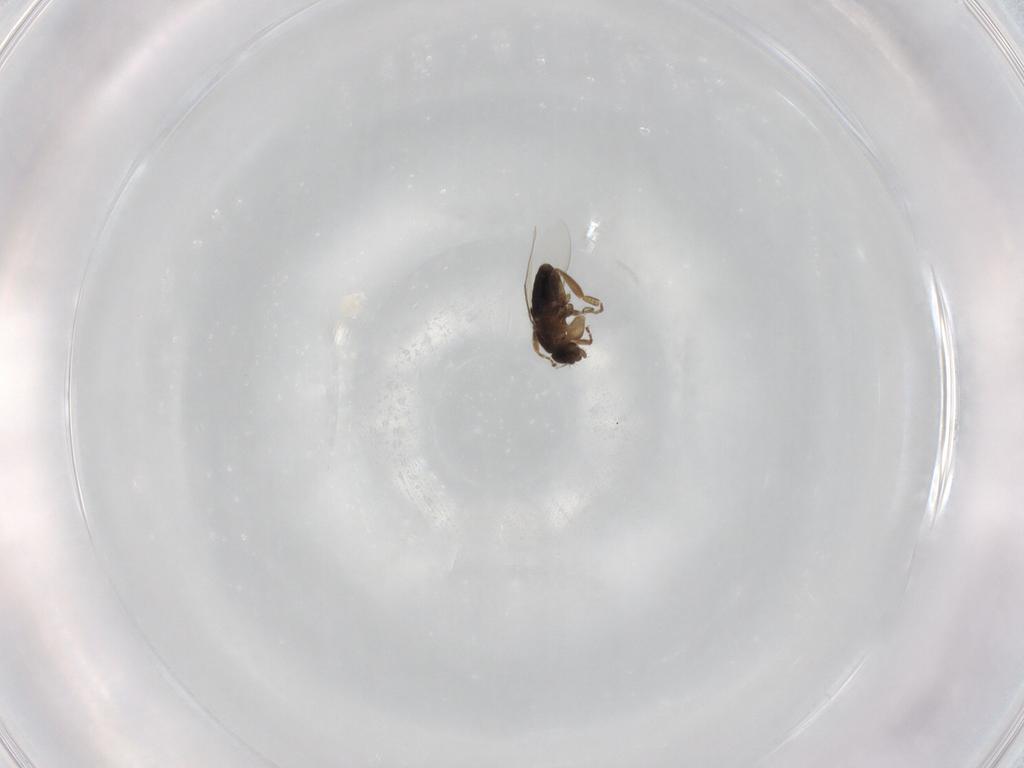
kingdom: Animalia
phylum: Arthropoda
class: Insecta
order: Diptera
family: Phoridae
